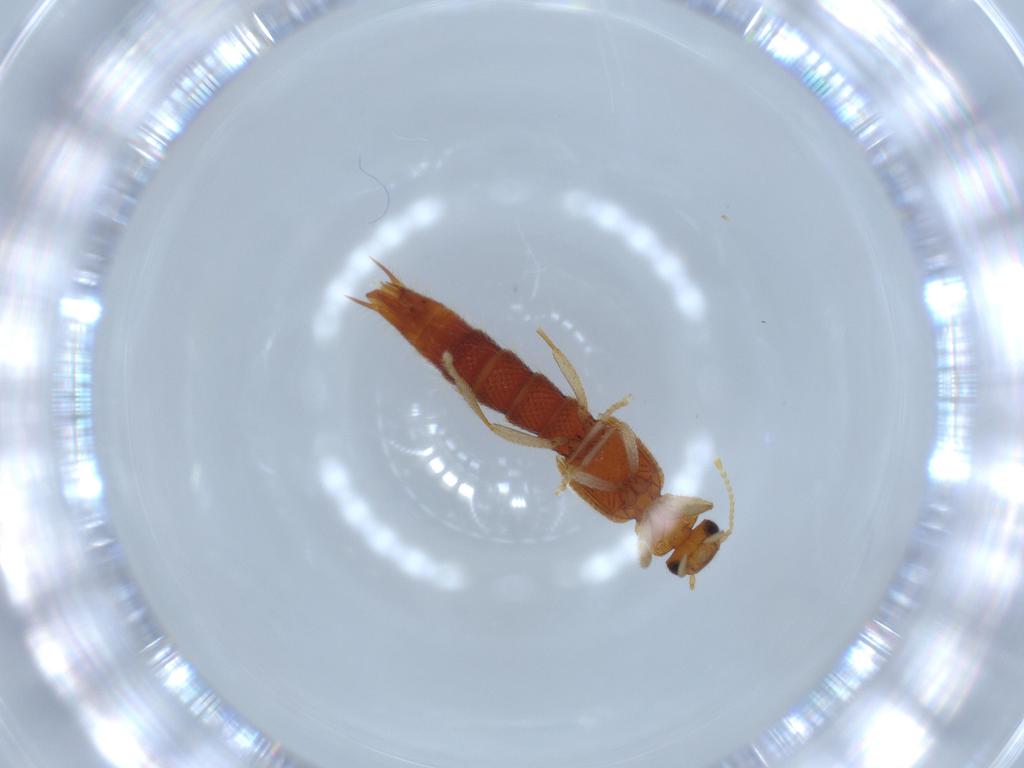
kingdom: Animalia
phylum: Arthropoda
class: Insecta
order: Coleoptera
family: Staphylinidae
